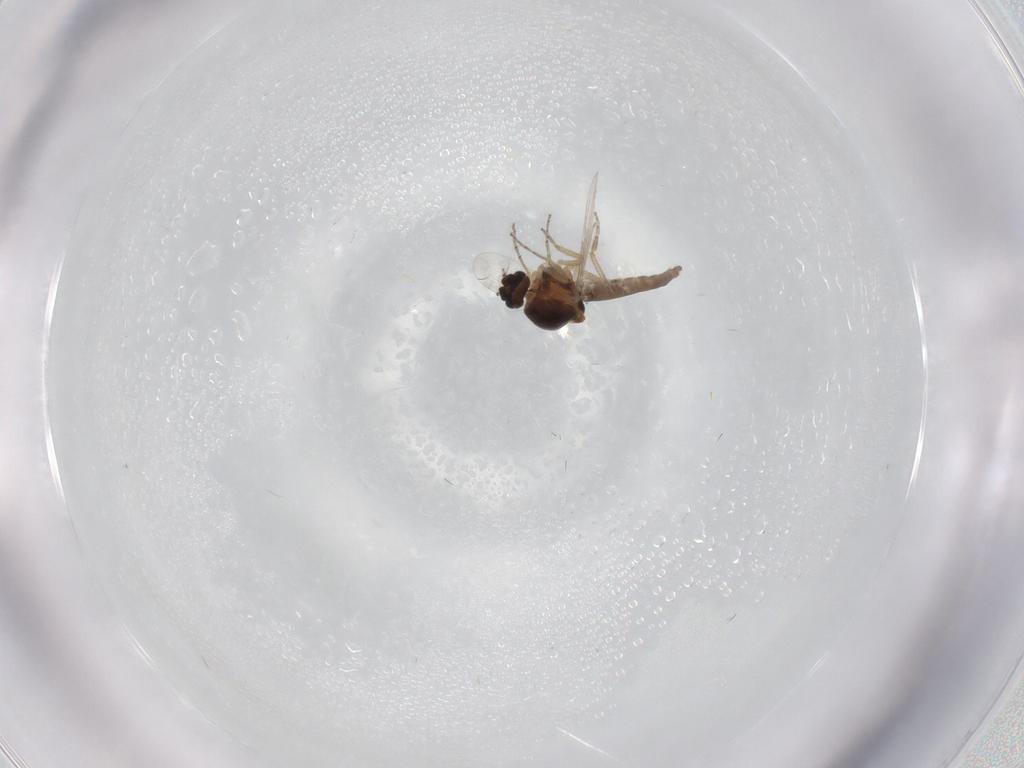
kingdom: Animalia
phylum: Arthropoda
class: Insecta
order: Diptera
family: Ceratopogonidae
